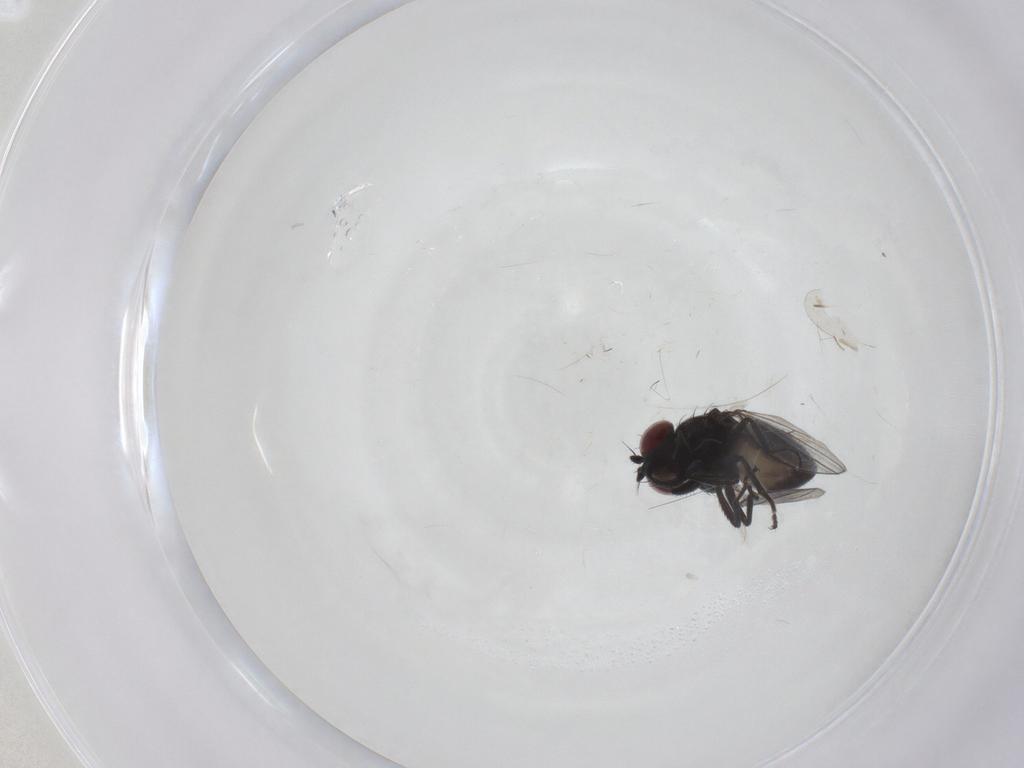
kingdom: Animalia
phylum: Arthropoda
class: Insecta
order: Diptera
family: Ephydridae
